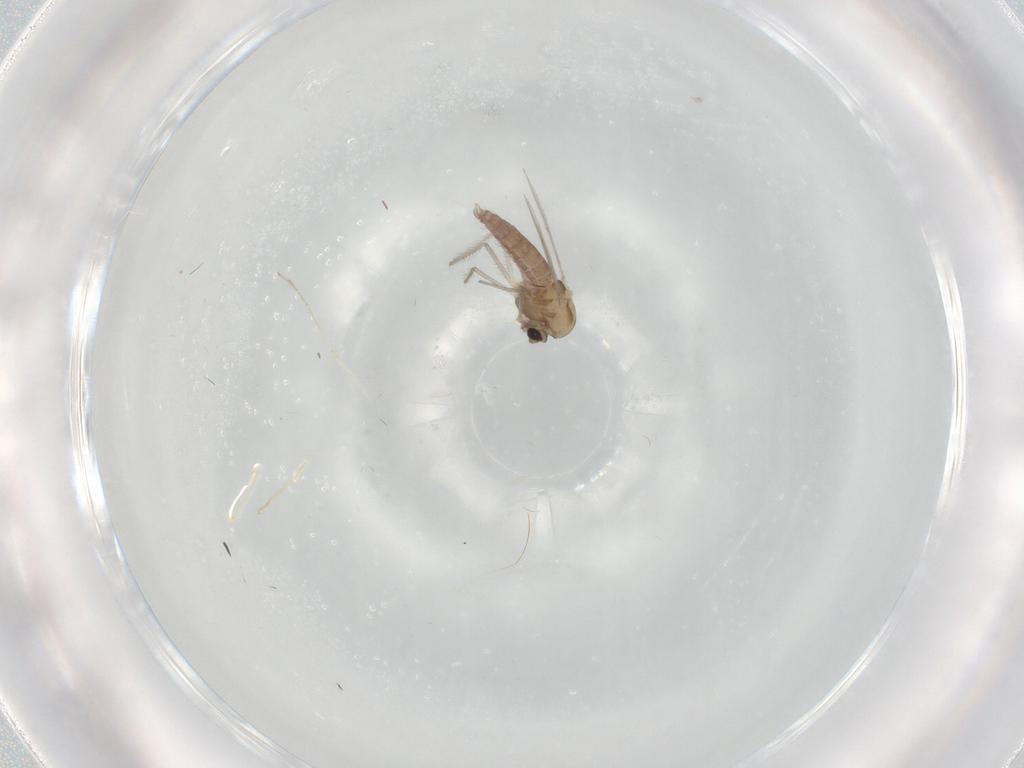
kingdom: Animalia
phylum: Arthropoda
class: Insecta
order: Diptera
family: Chironomidae
